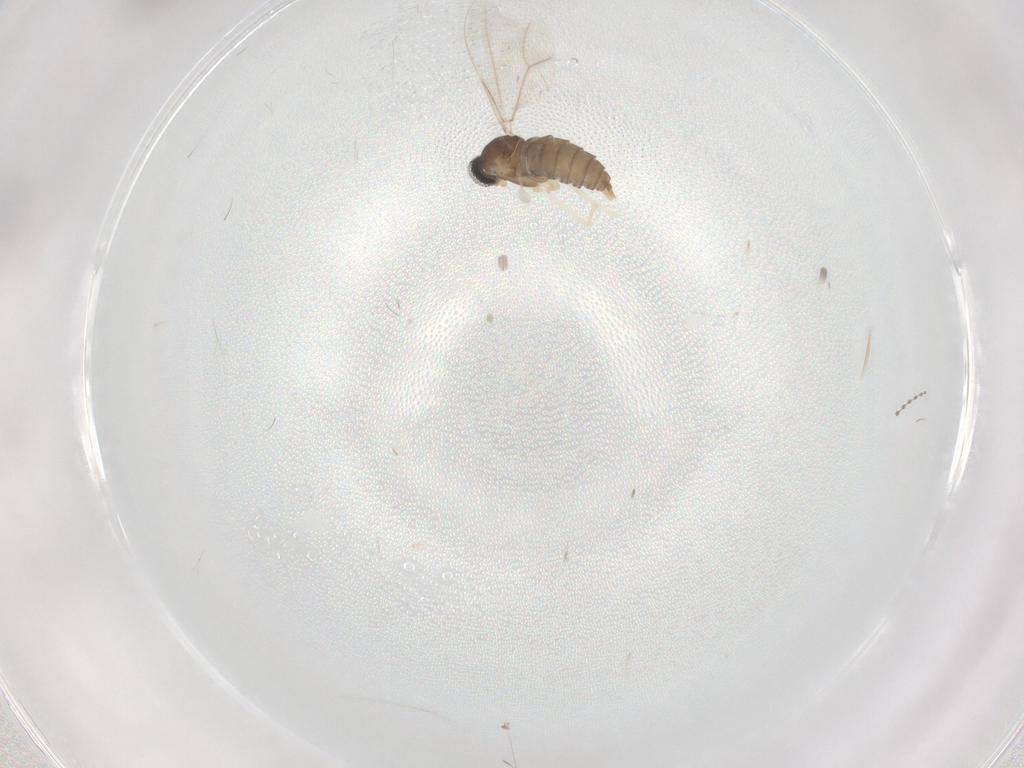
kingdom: Animalia
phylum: Arthropoda
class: Insecta
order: Diptera
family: Cecidomyiidae
